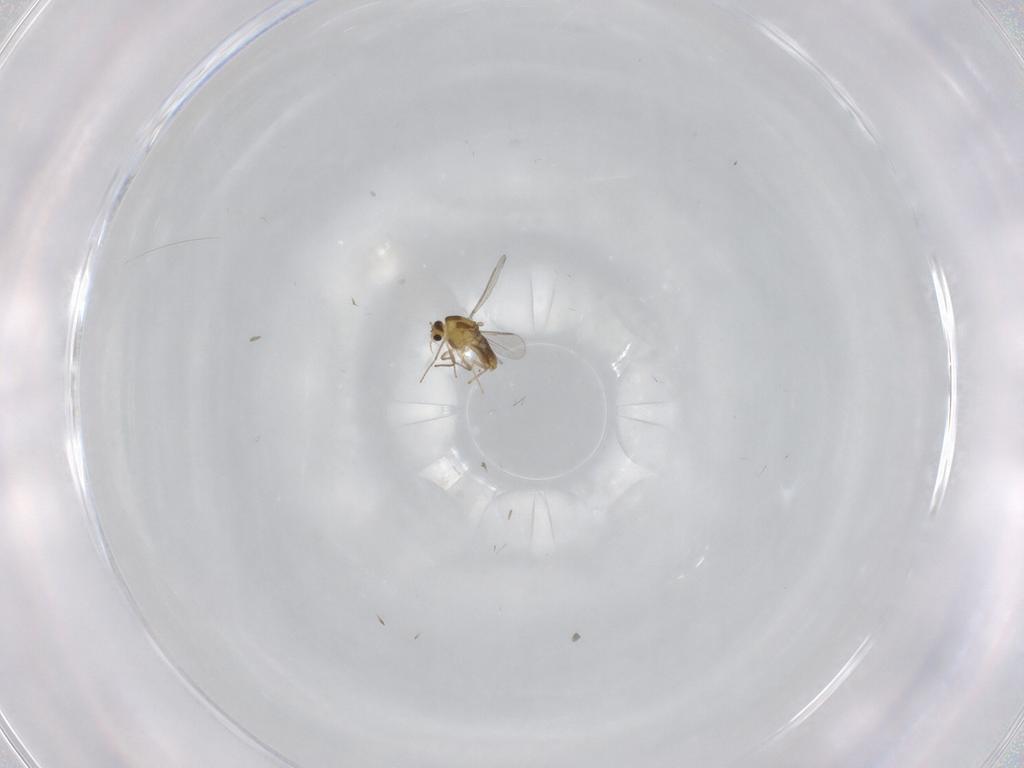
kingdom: Animalia
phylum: Arthropoda
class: Insecta
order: Diptera
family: Chironomidae
